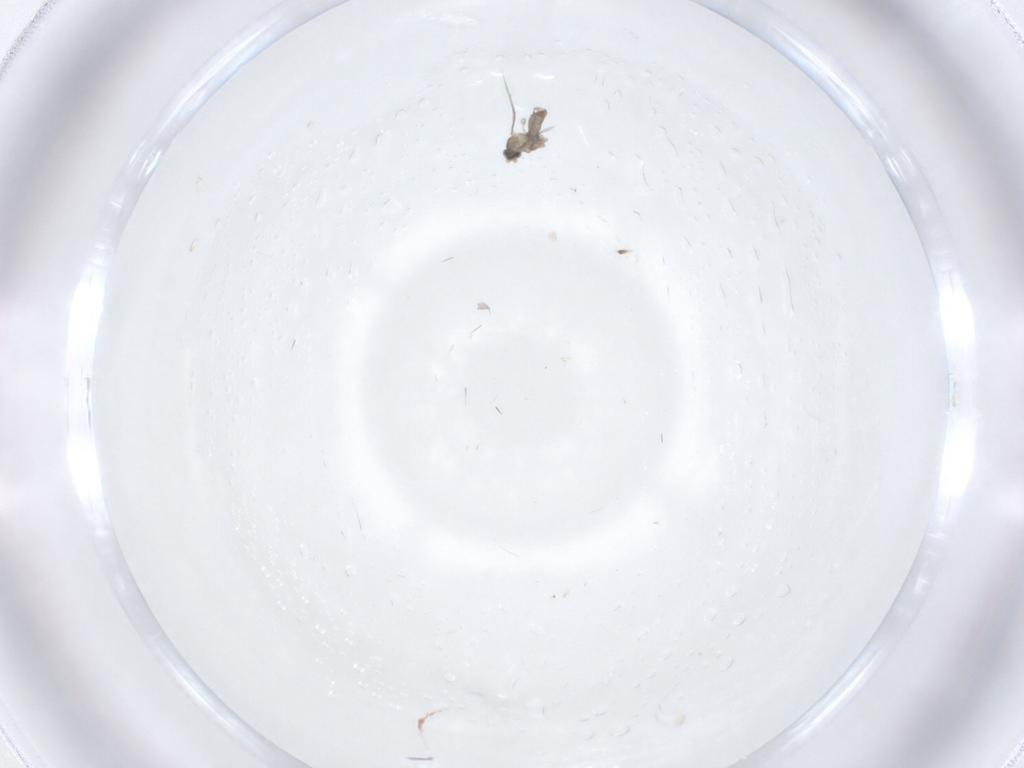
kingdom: Animalia
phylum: Arthropoda
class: Insecta
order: Diptera
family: Cecidomyiidae
